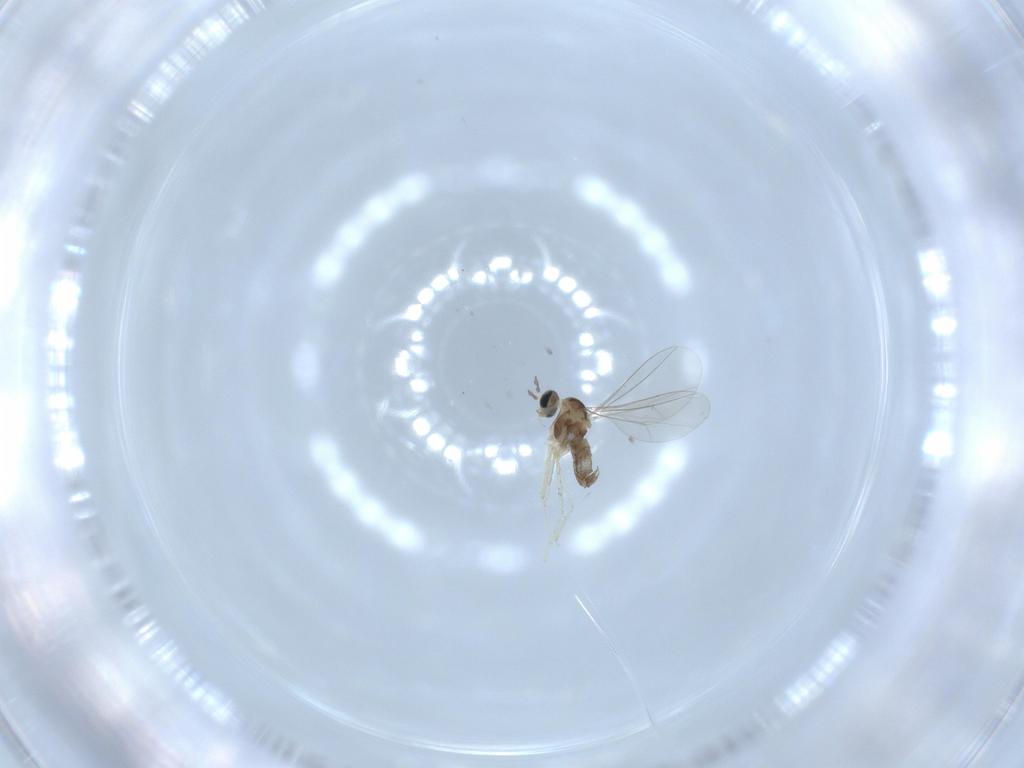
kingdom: Animalia
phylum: Arthropoda
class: Insecta
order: Diptera
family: Cecidomyiidae
